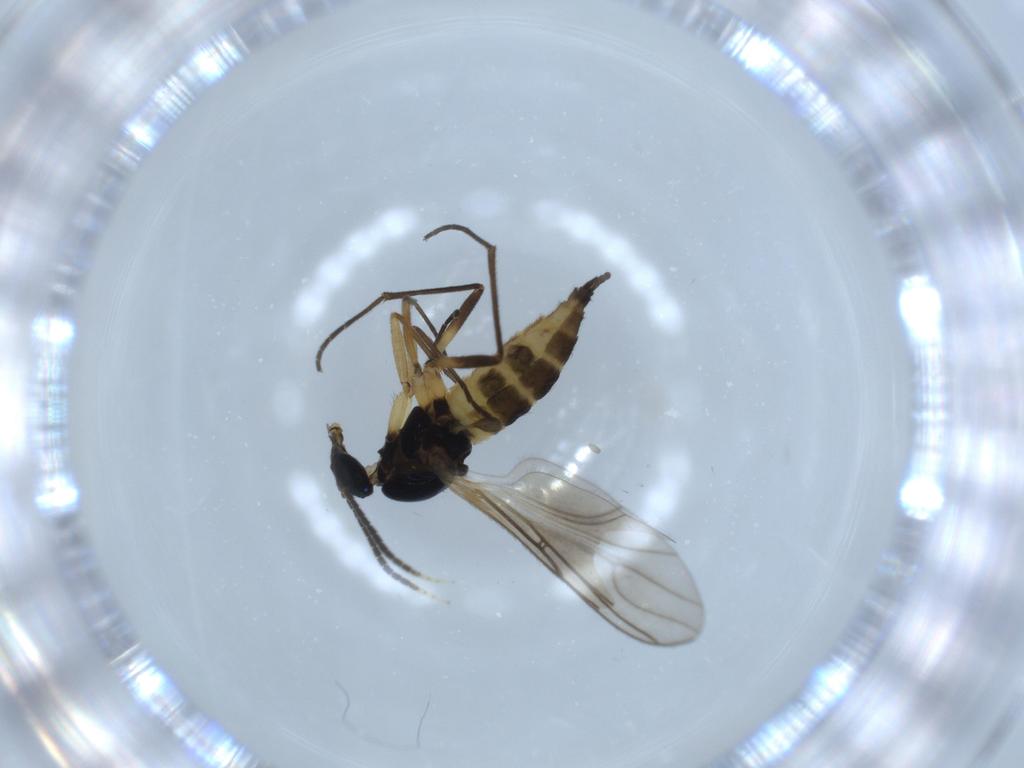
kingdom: Animalia
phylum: Arthropoda
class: Insecta
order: Diptera
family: Sciaridae
